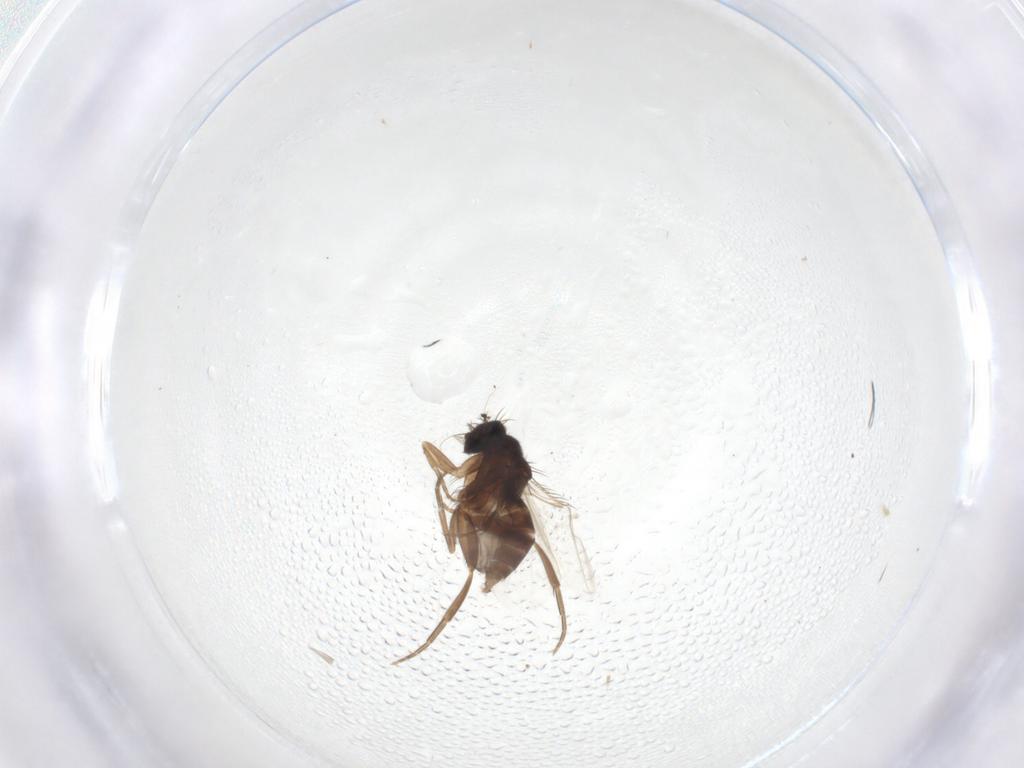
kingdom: Animalia
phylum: Arthropoda
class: Insecta
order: Diptera
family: Phoridae
